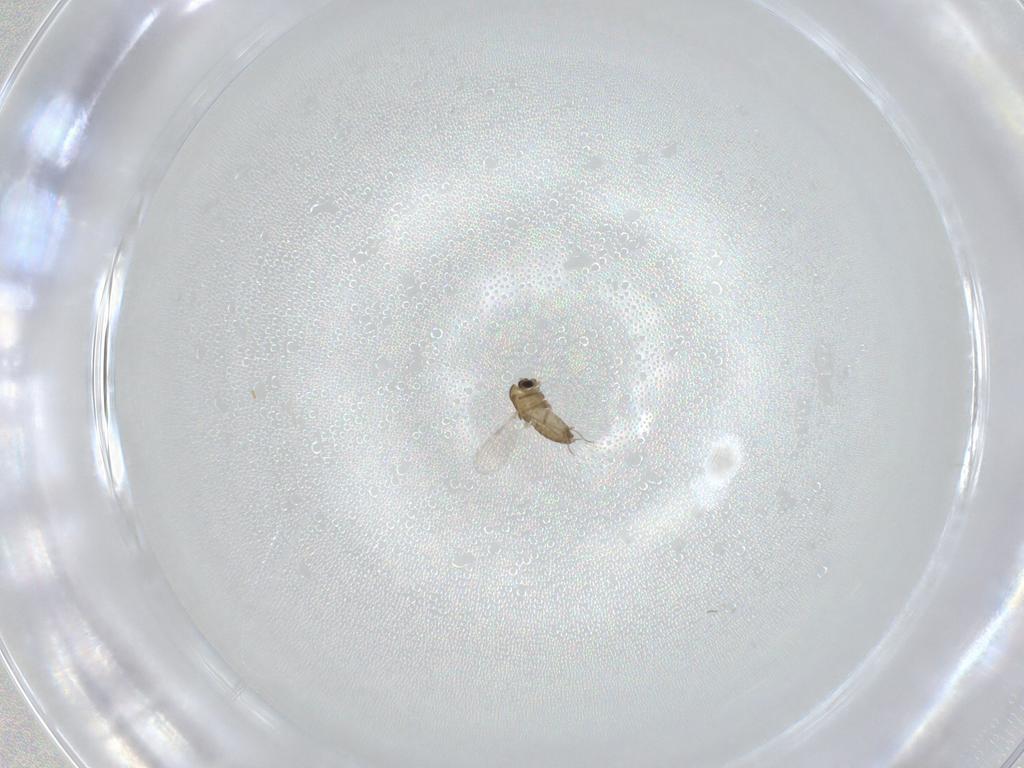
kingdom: Animalia
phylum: Arthropoda
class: Insecta
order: Diptera
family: Chironomidae
